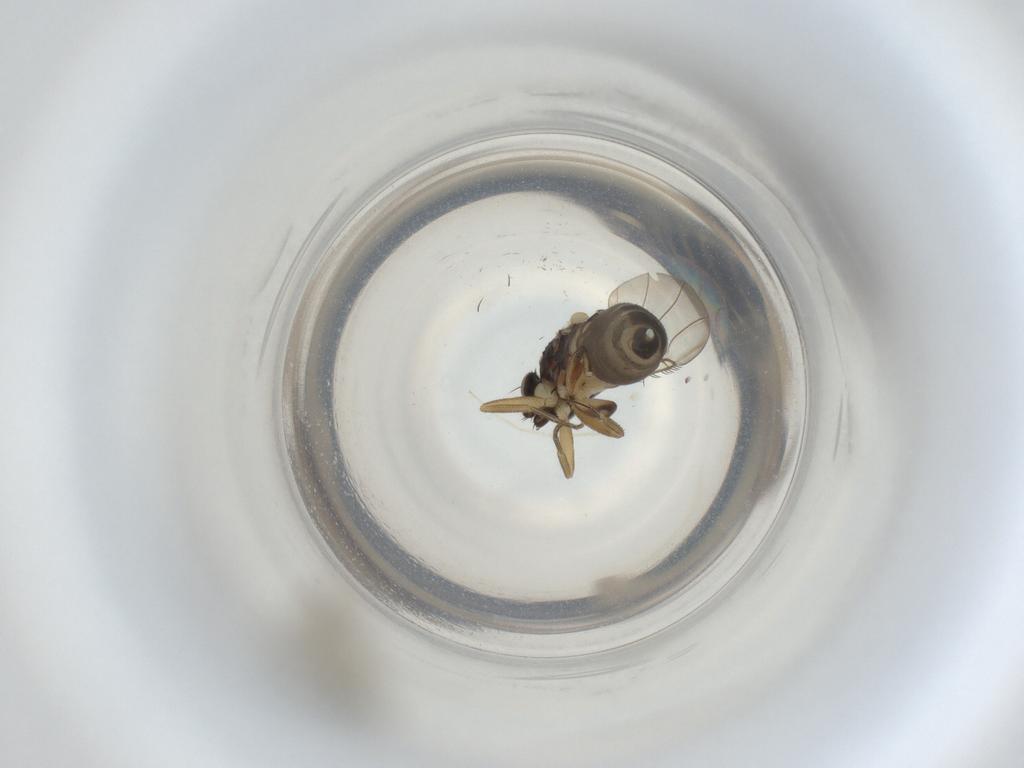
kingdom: Animalia
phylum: Arthropoda
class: Insecta
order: Diptera
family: Phoridae
